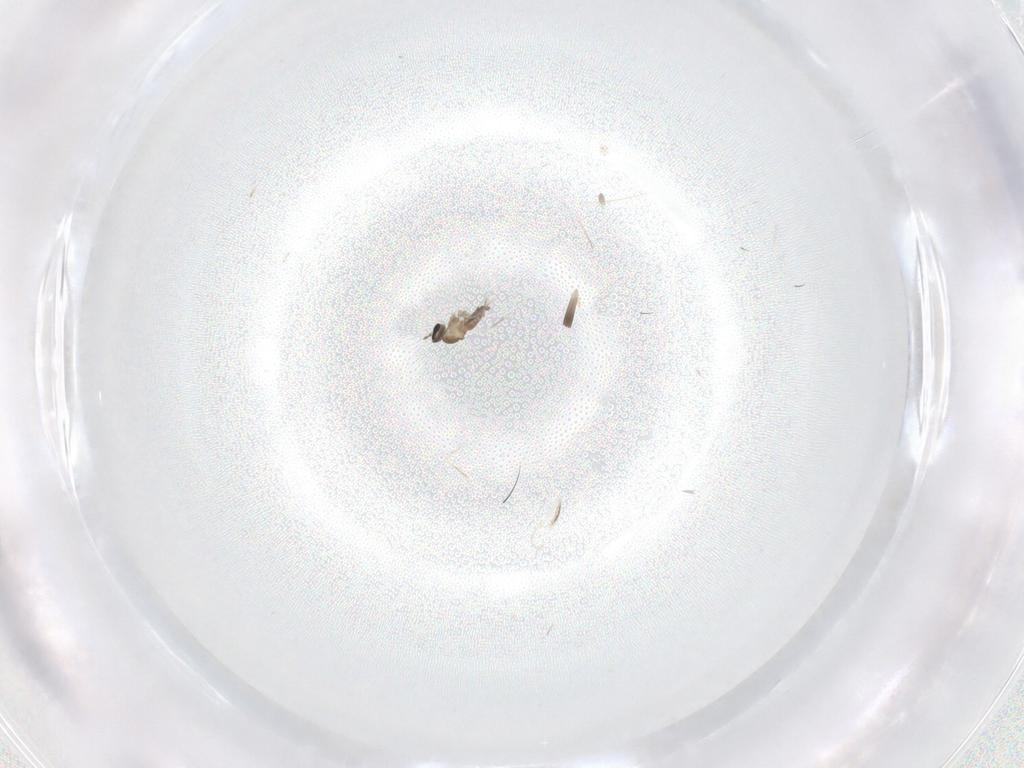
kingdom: Animalia
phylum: Arthropoda
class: Insecta
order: Diptera
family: Cecidomyiidae
